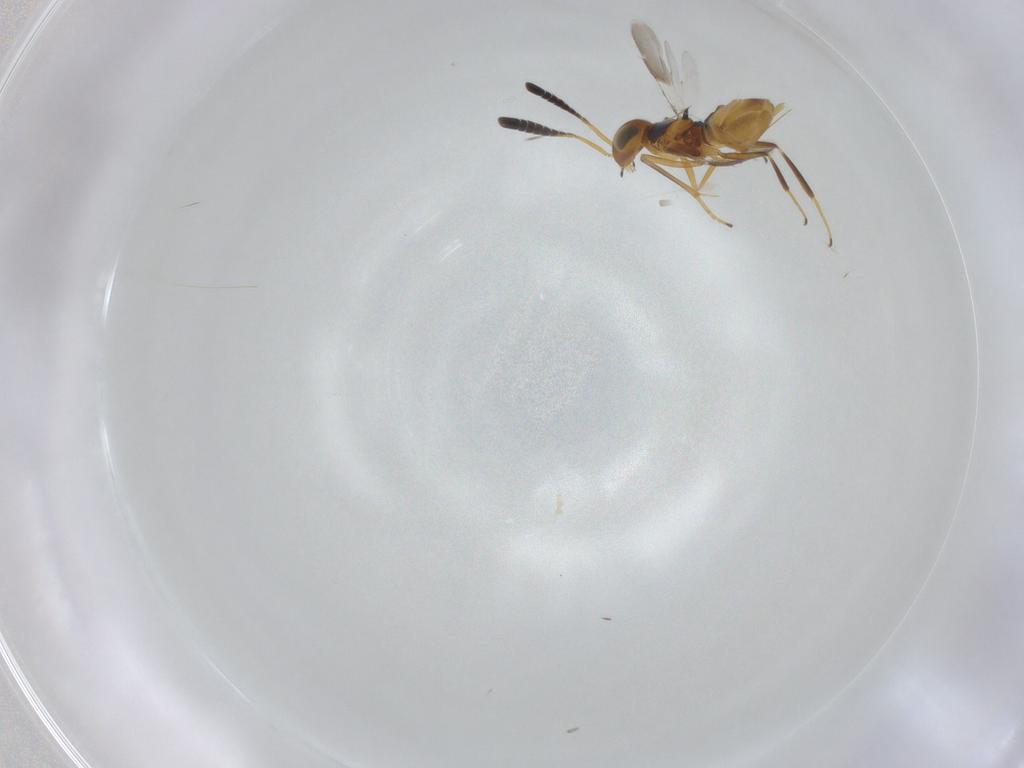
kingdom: Animalia
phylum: Arthropoda
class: Insecta
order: Hymenoptera
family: Encyrtidae
